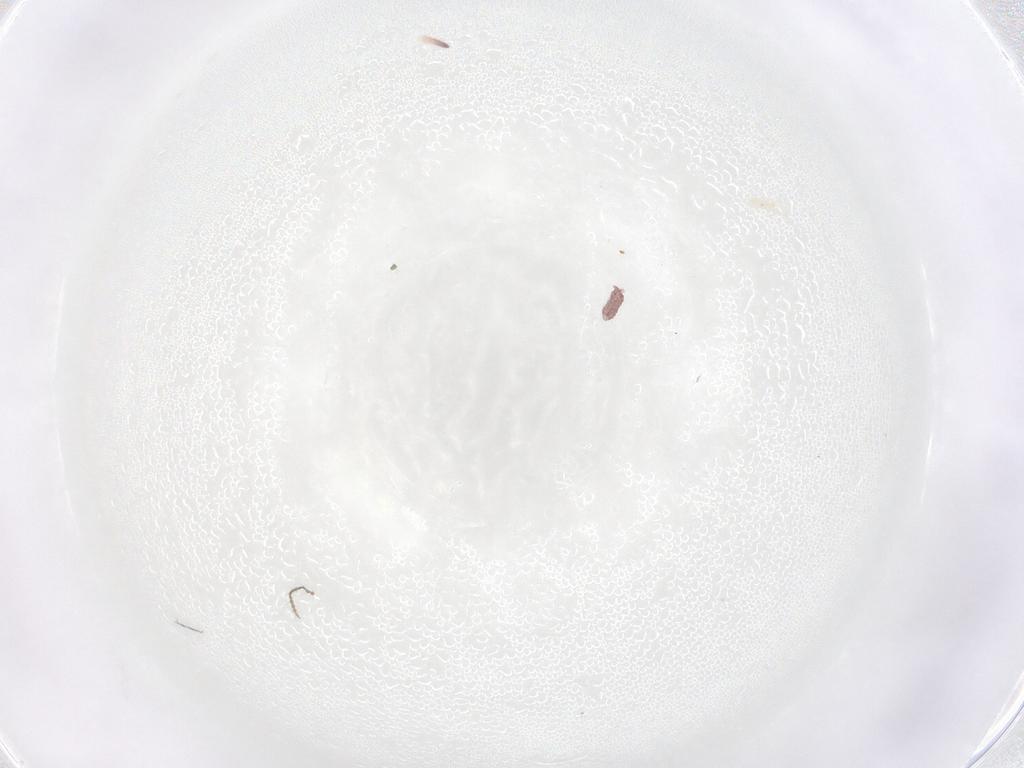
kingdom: Animalia
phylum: Arthropoda
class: Collembola
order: Poduromorpha
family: Hypogastruridae
